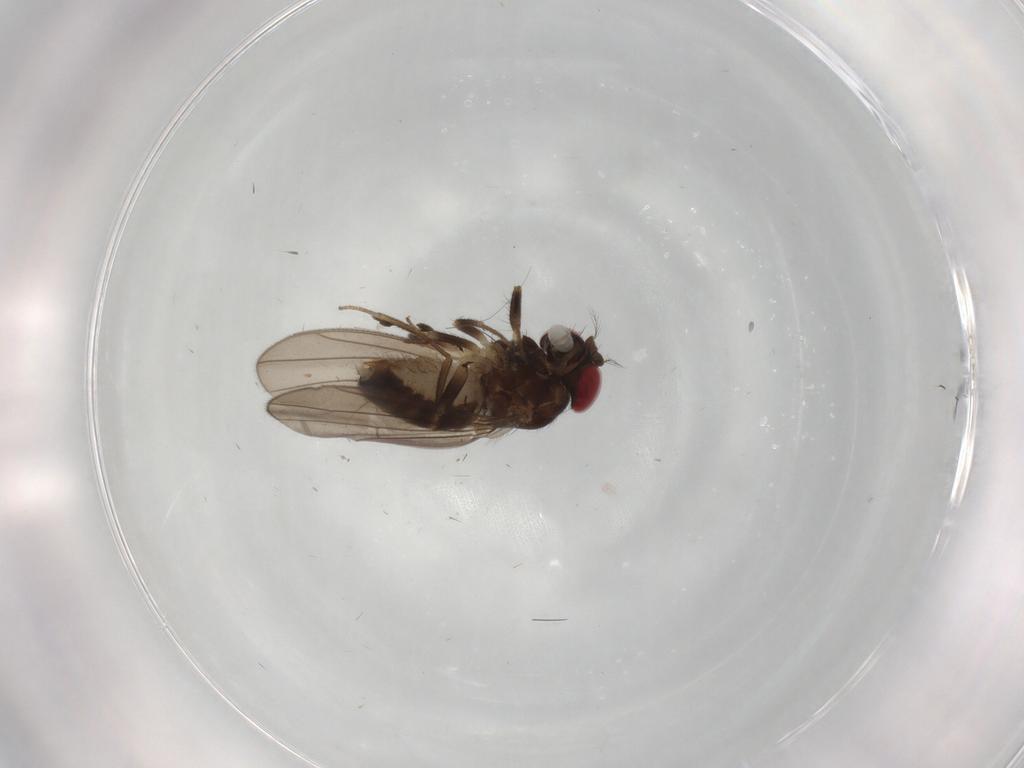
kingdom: Animalia
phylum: Arthropoda
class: Insecta
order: Diptera
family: Drosophilidae
